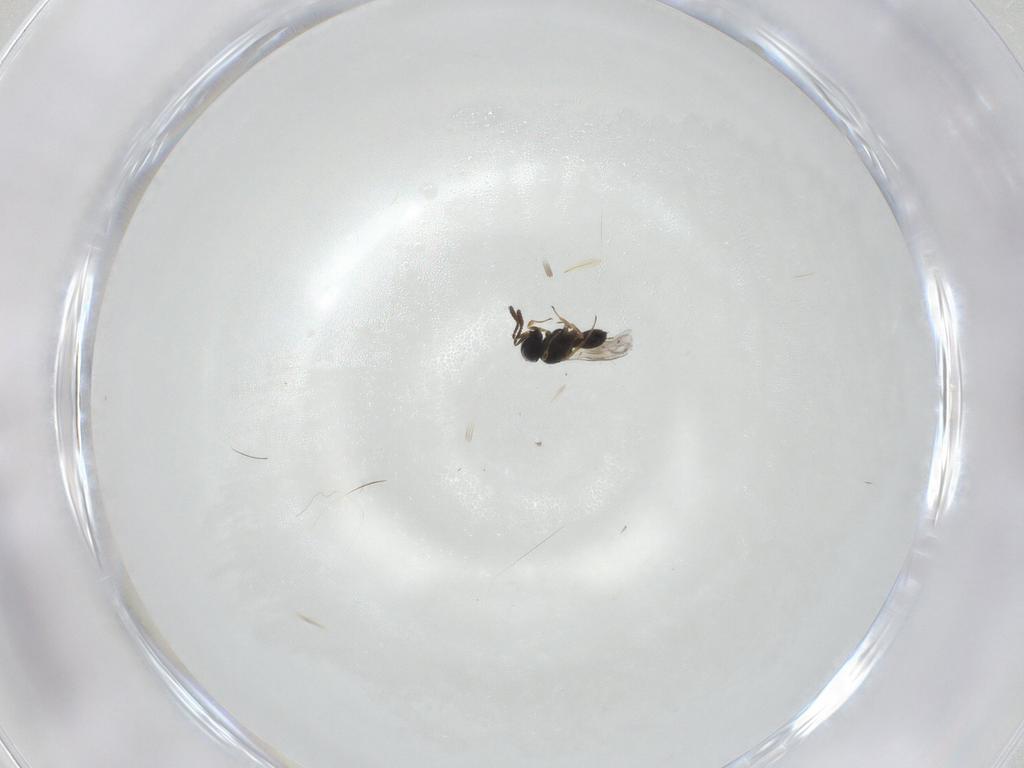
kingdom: Animalia
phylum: Arthropoda
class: Insecta
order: Hymenoptera
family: Scelionidae
